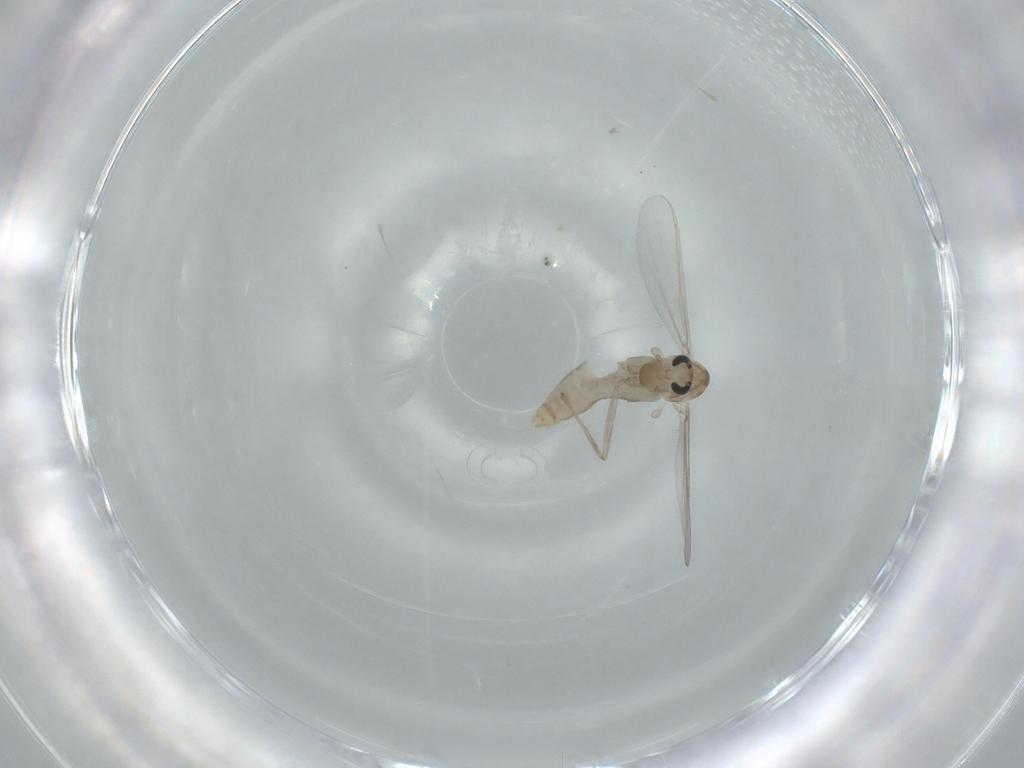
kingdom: Animalia
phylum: Arthropoda
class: Insecta
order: Diptera
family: Chironomidae
